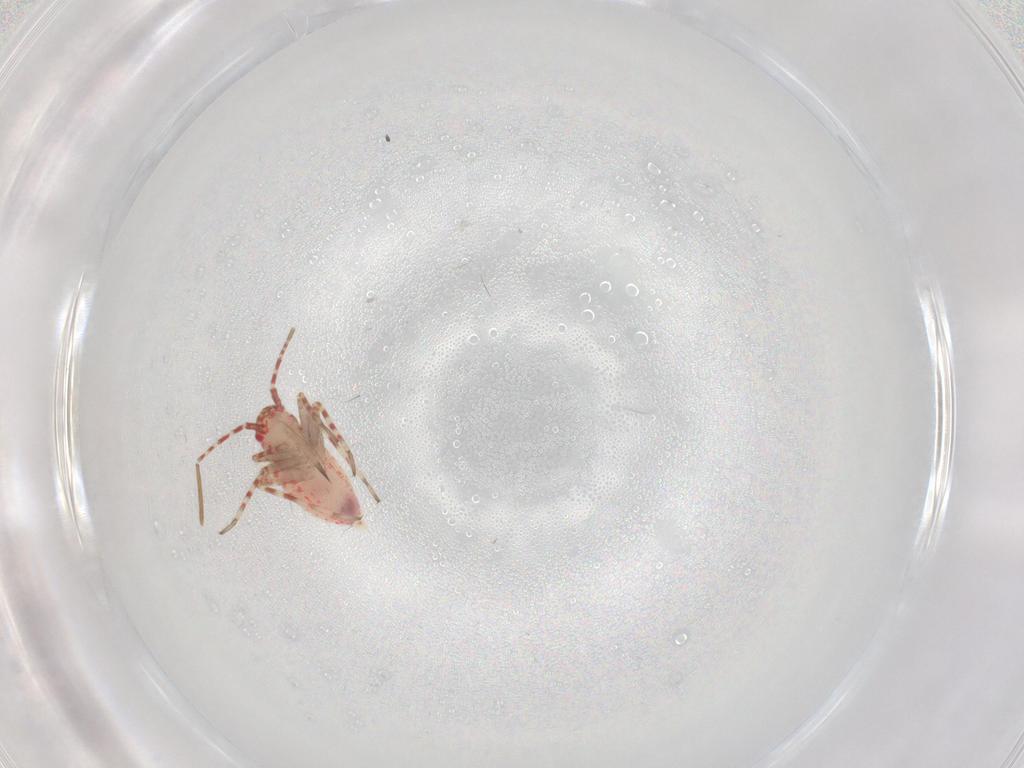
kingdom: Animalia
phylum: Arthropoda
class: Insecta
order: Hemiptera
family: Miridae
